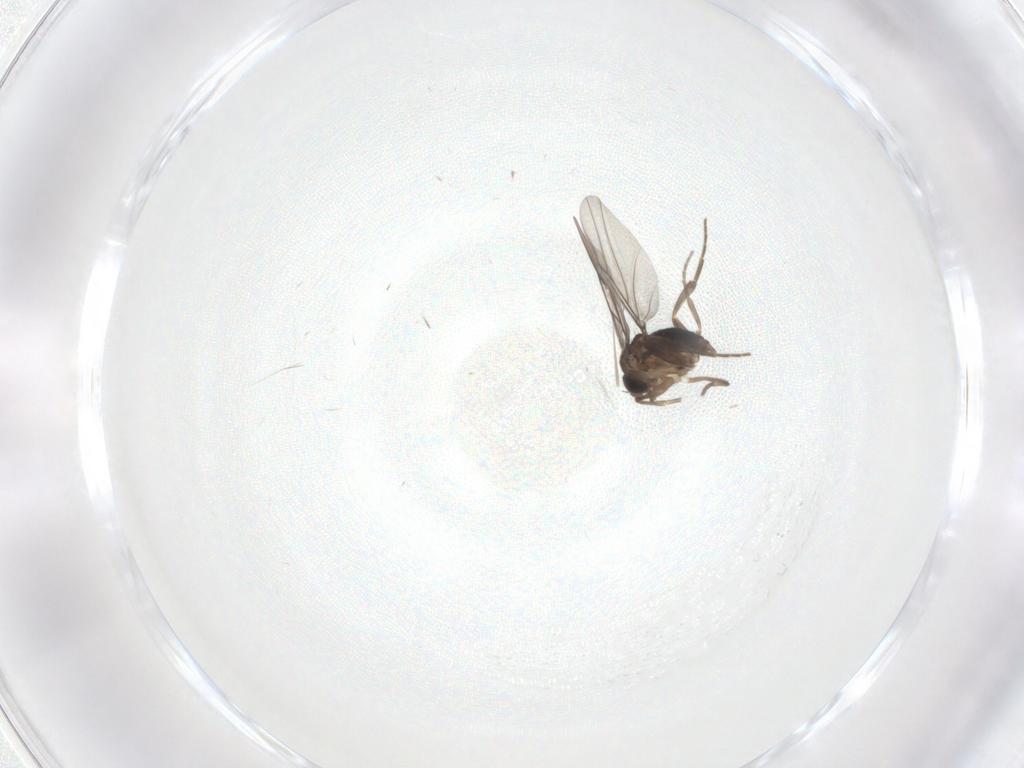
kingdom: Animalia
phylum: Arthropoda
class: Insecta
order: Diptera
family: Phoridae
